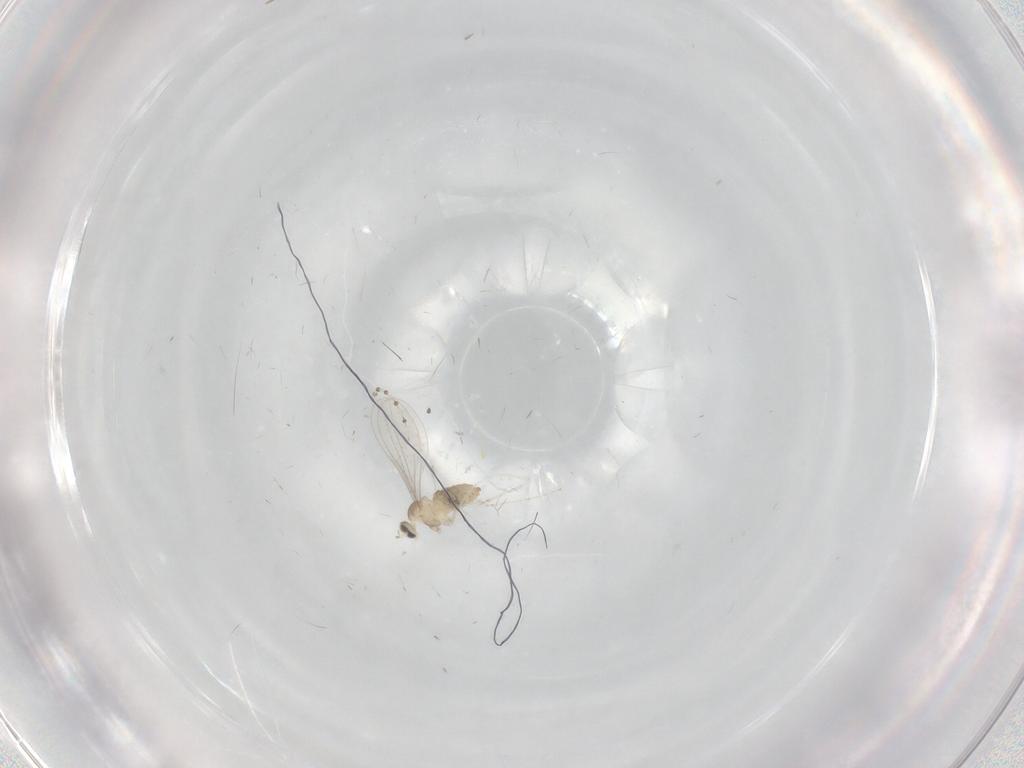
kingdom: Animalia
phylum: Arthropoda
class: Insecta
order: Diptera
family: Cecidomyiidae
